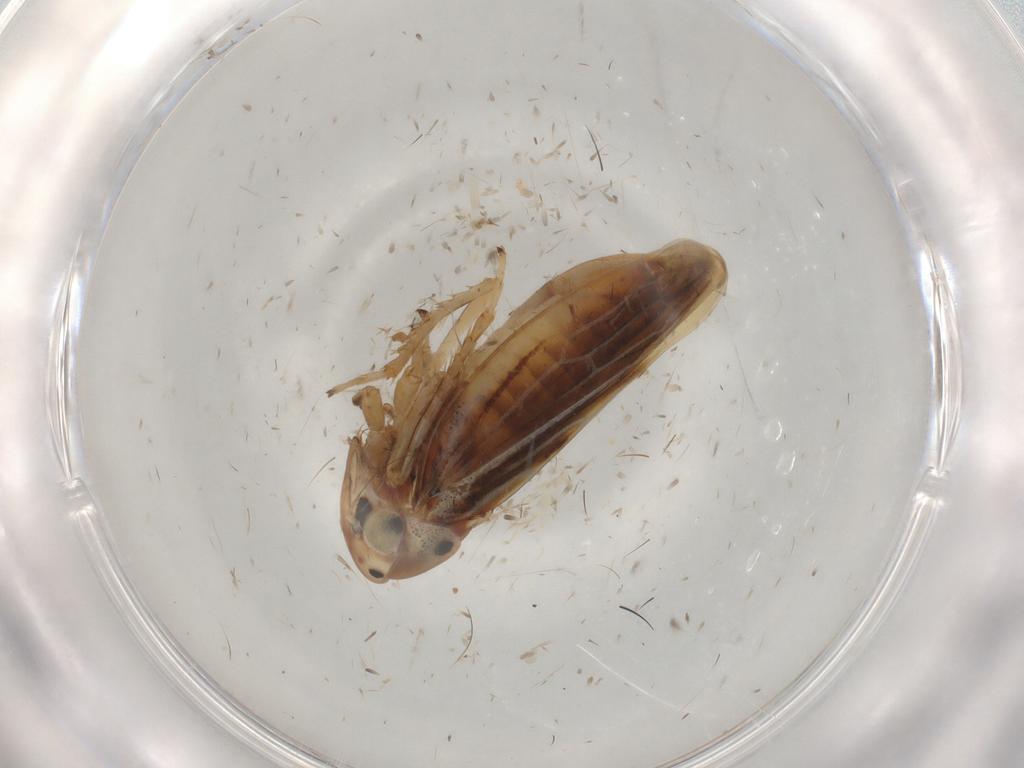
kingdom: Animalia
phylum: Arthropoda
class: Insecta
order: Hemiptera
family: Cicadellidae
